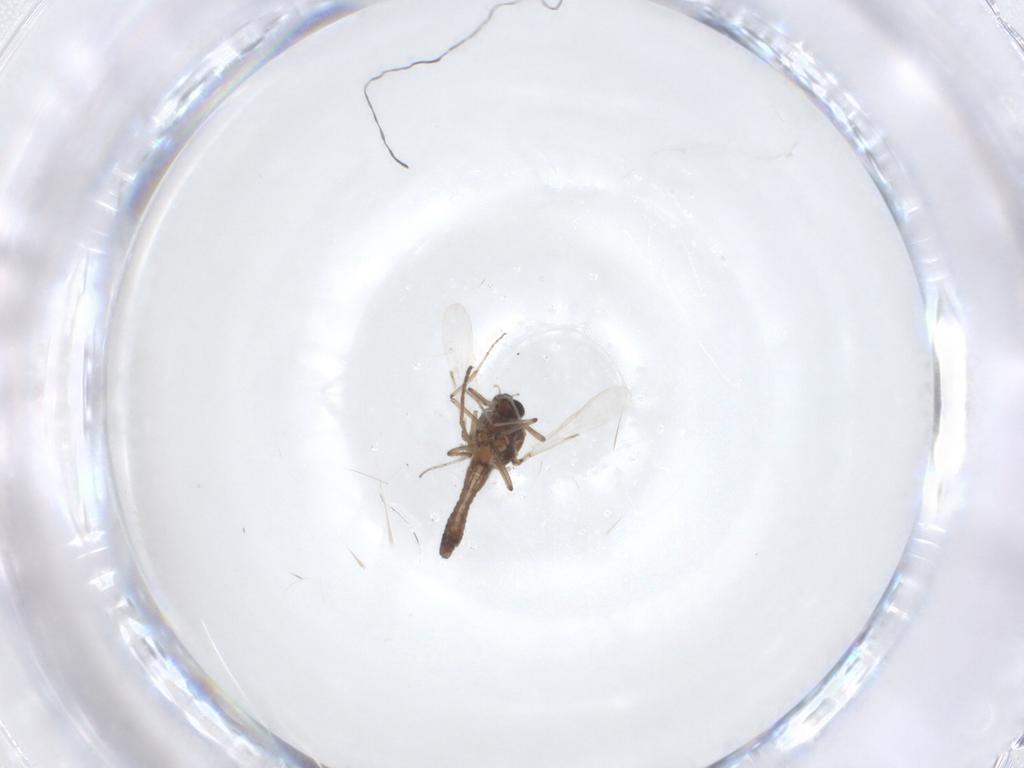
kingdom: Animalia
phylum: Arthropoda
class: Insecta
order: Diptera
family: Ceratopogonidae
